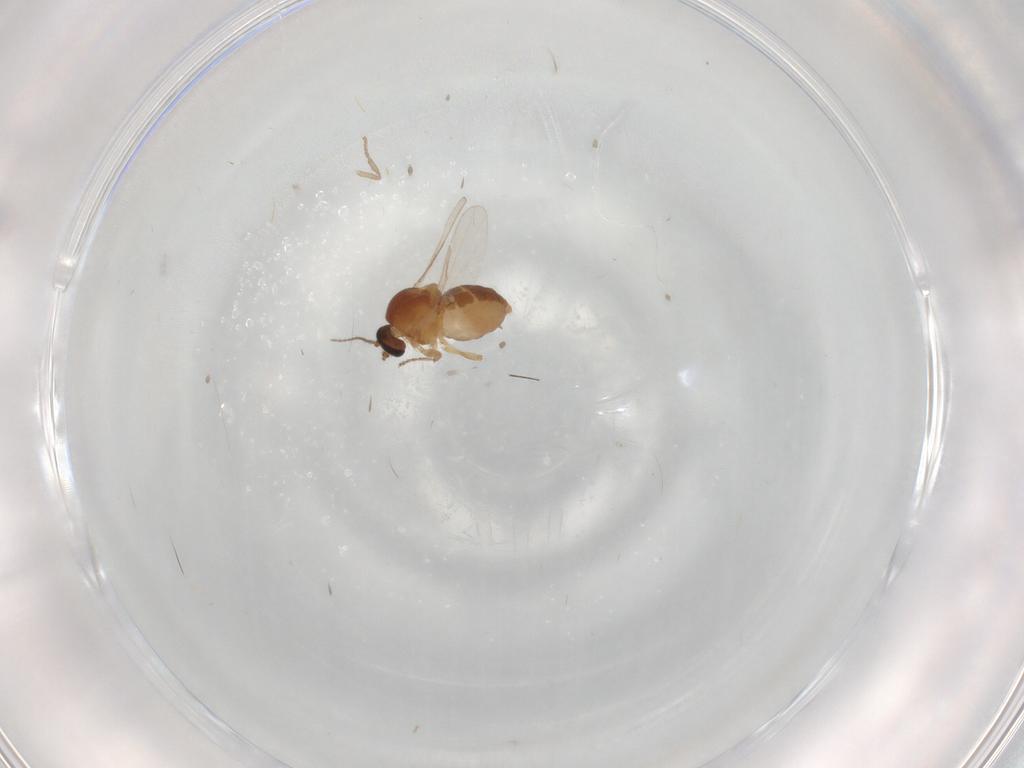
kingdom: Animalia
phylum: Arthropoda
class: Insecta
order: Diptera
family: Ceratopogonidae
